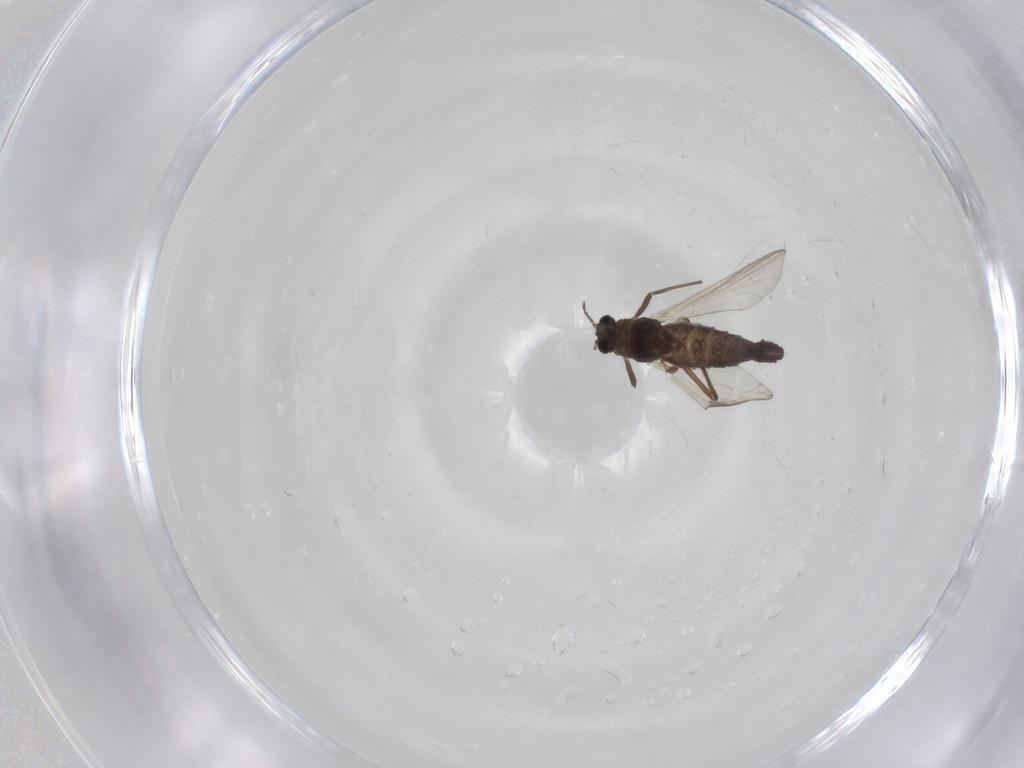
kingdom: Animalia
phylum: Arthropoda
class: Insecta
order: Diptera
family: Chironomidae
